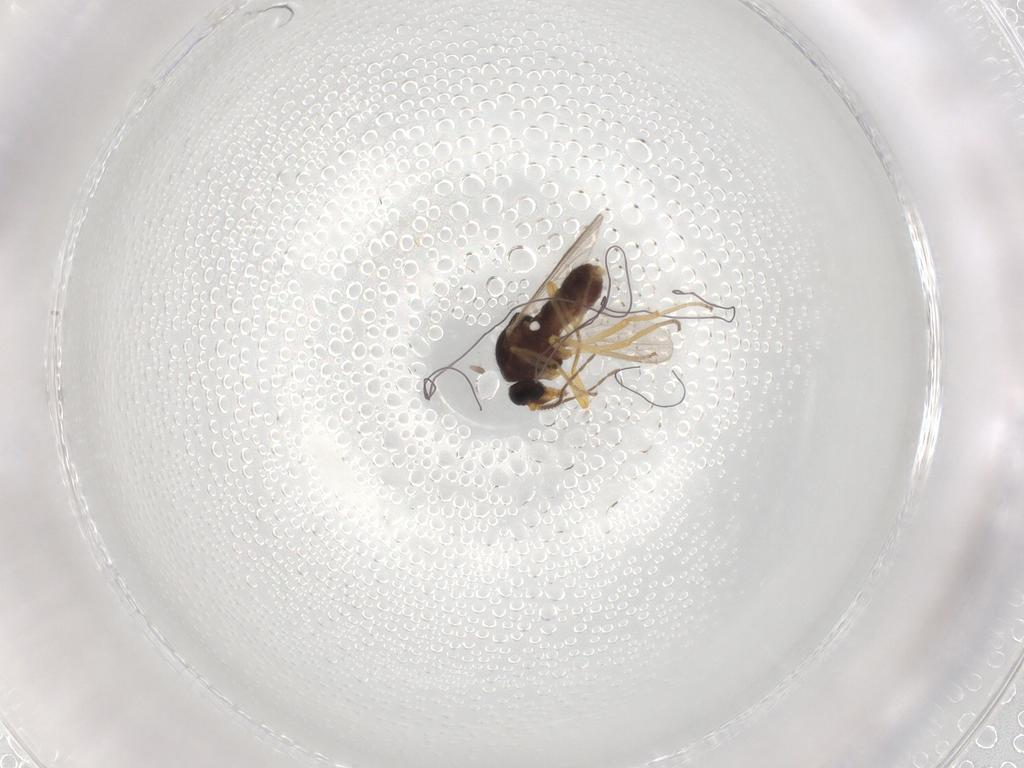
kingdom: Animalia
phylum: Arthropoda
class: Insecta
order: Diptera
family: Ceratopogonidae
